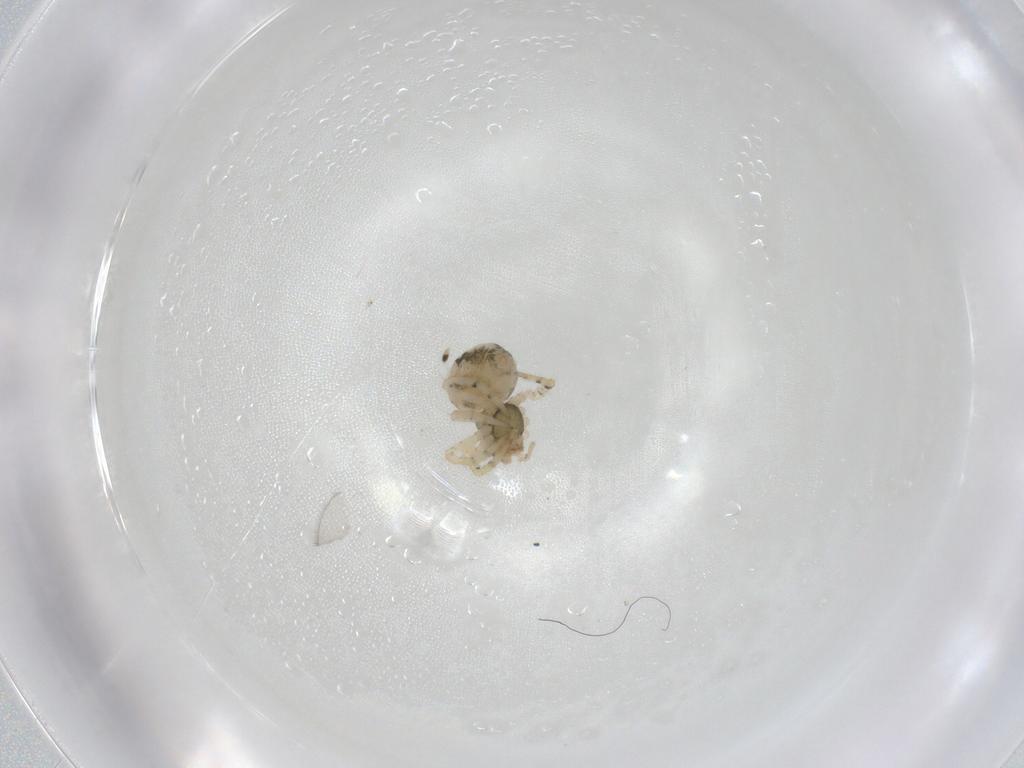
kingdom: Animalia
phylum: Arthropoda
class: Arachnida
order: Araneae
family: Theridiidae
